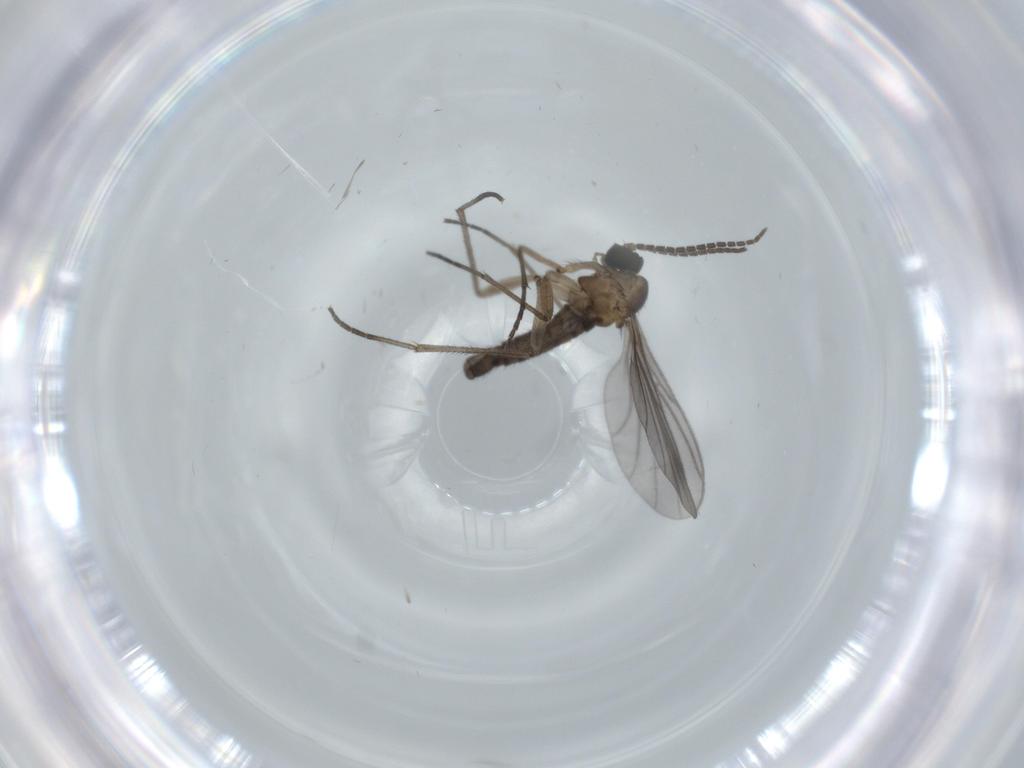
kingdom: Animalia
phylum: Arthropoda
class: Insecta
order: Diptera
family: Sciaridae
